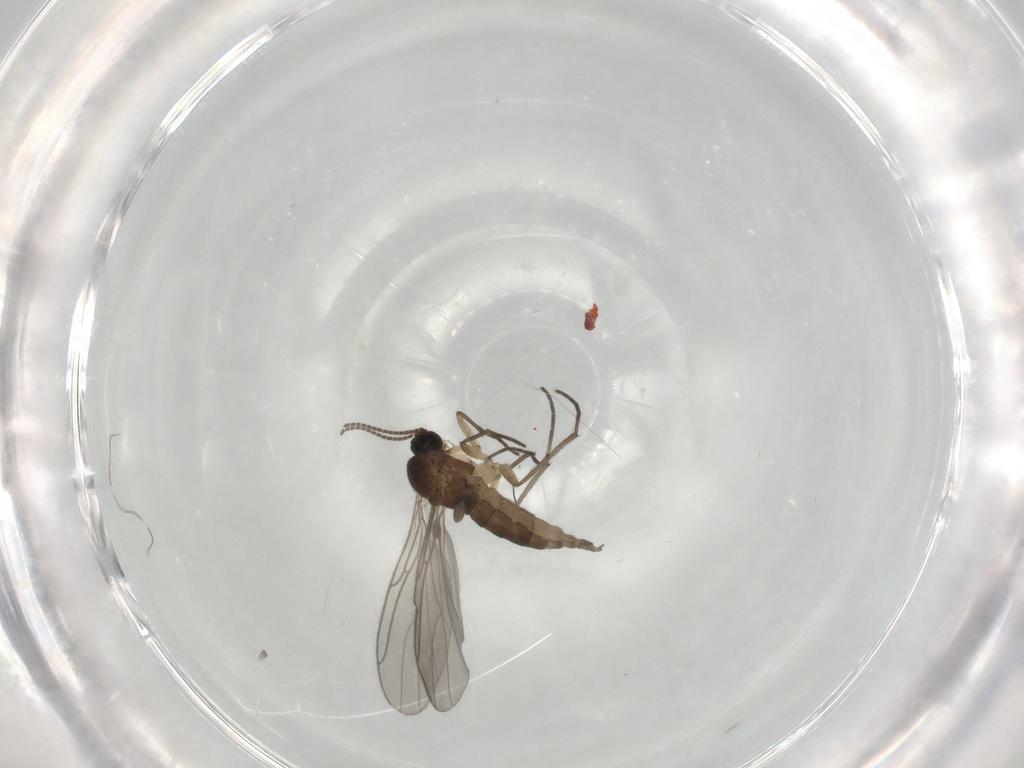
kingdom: Animalia
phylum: Arthropoda
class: Insecta
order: Diptera
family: Sciaridae
